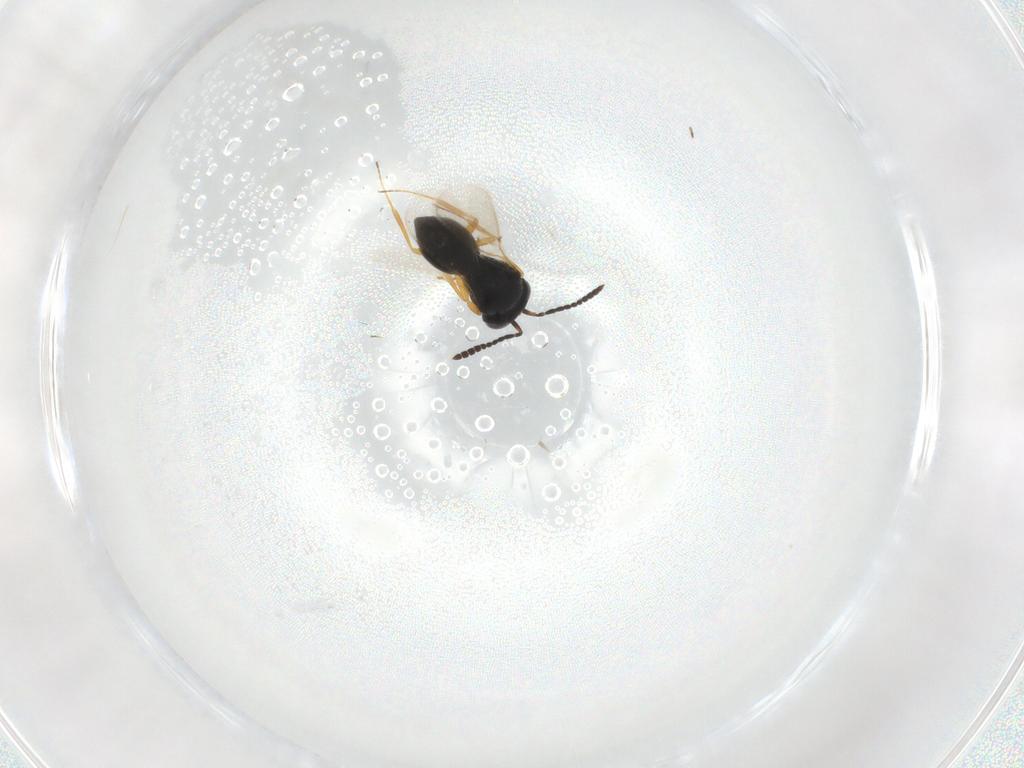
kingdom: Animalia
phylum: Arthropoda
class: Insecta
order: Hymenoptera
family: Scelionidae
